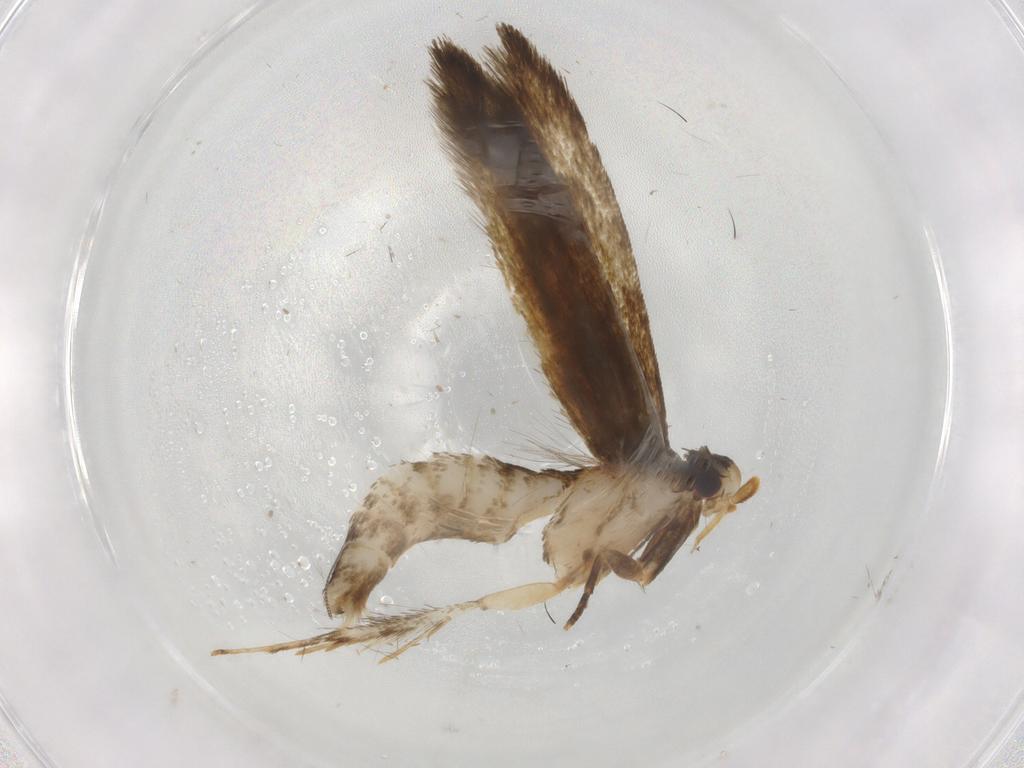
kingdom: Animalia
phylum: Arthropoda
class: Insecta
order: Lepidoptera
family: Tineidae
